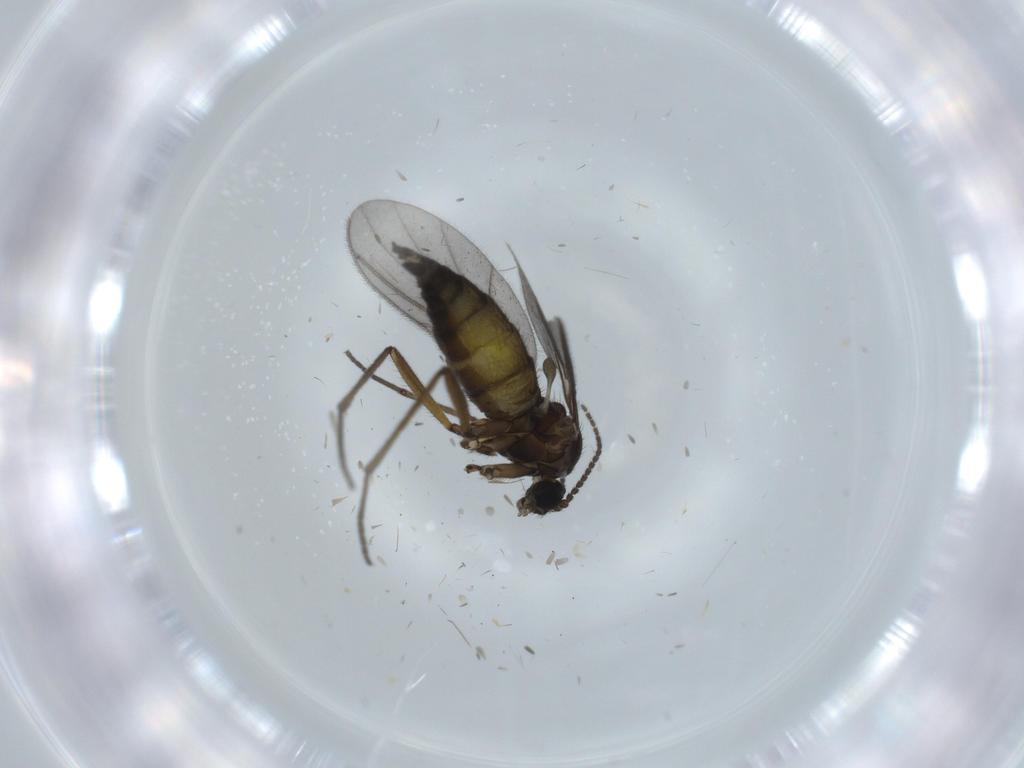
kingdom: Animalia
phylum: Arthropoda
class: Insecta
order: Diptera
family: Sciaridae
